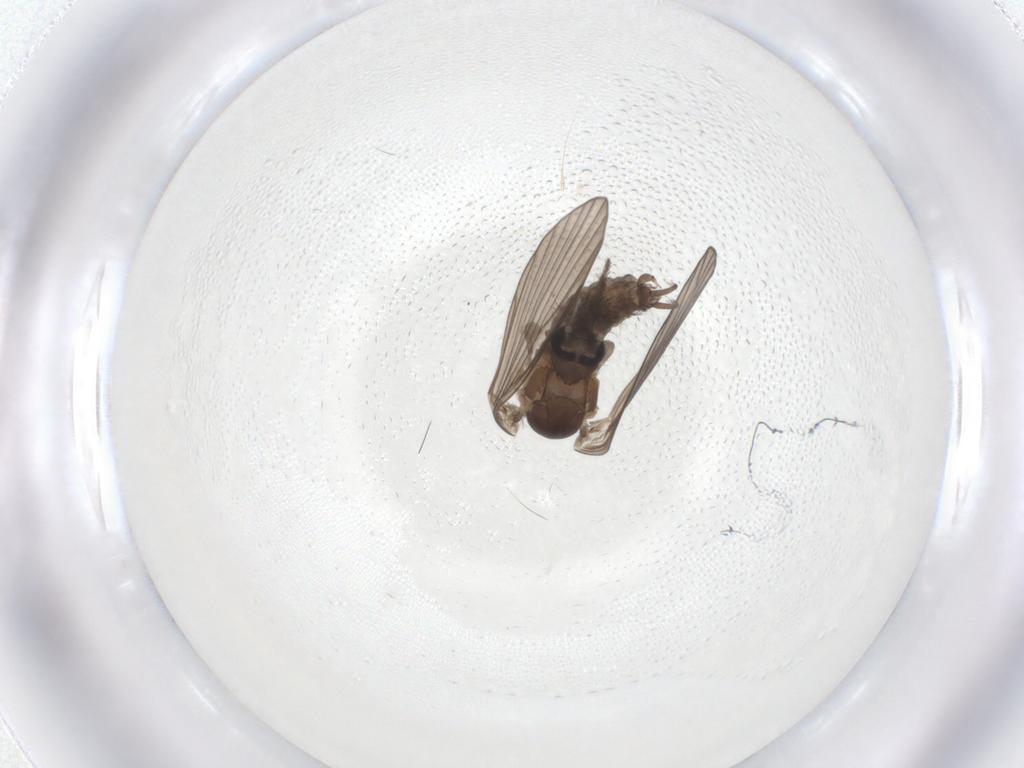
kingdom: Animalia
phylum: Arthropoda
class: Insecta
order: Diptera
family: Psychodidae
